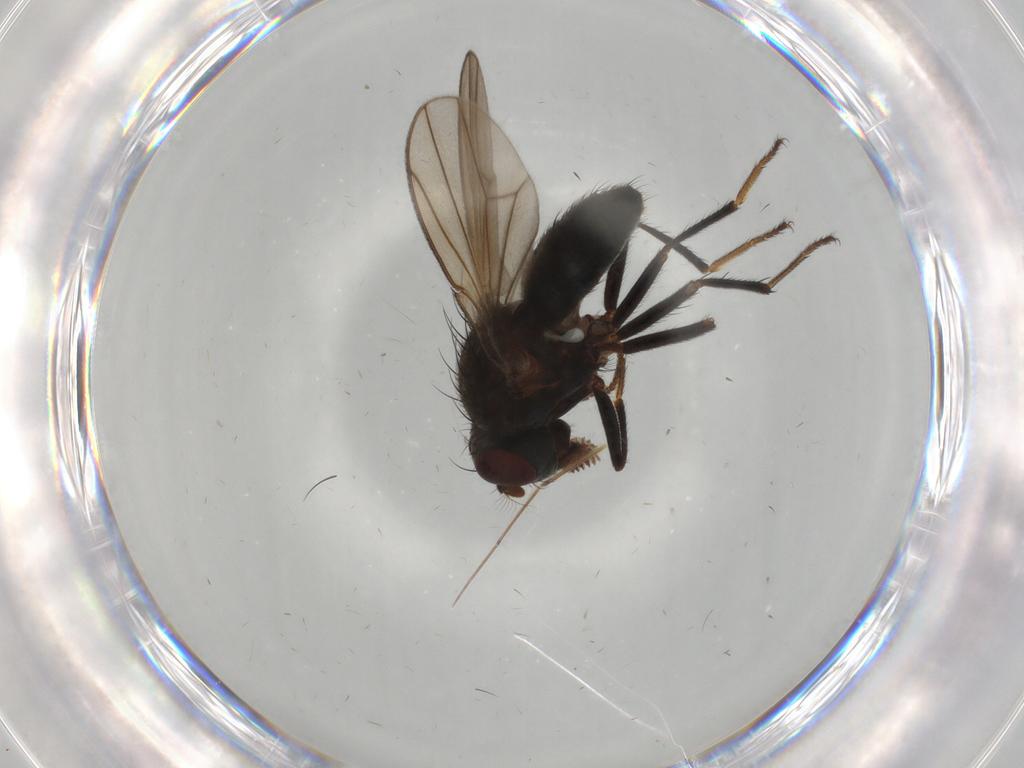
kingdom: Animalia
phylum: Arthropoda
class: Insecta
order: Diptera
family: Ephydridae
